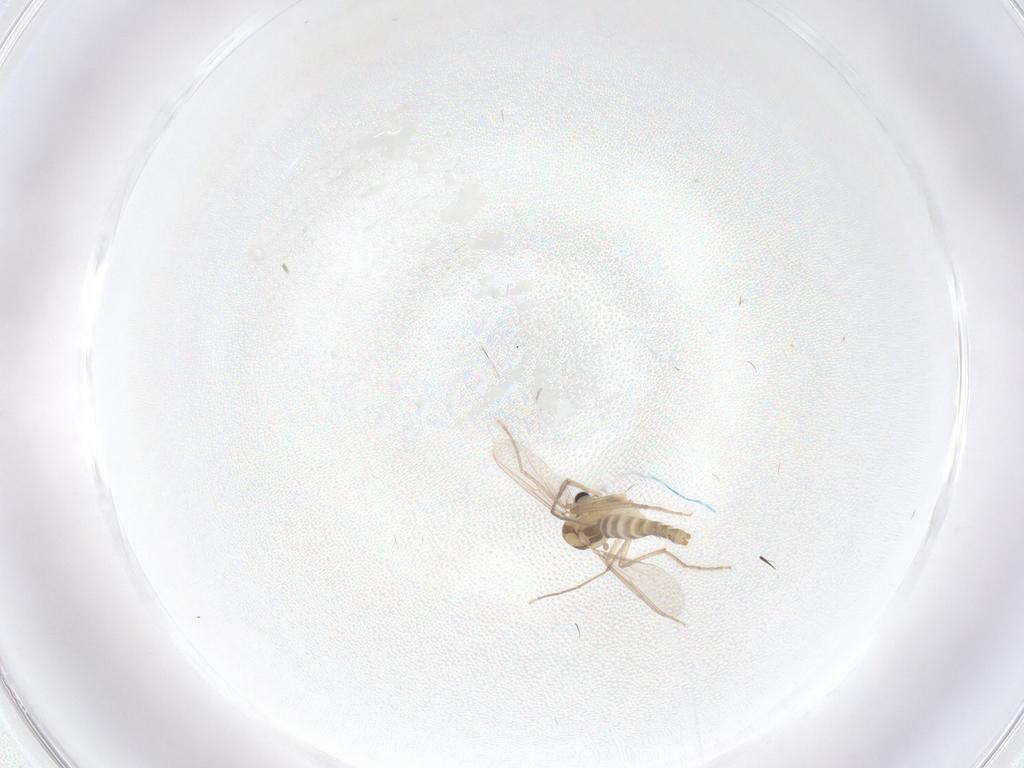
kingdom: Animalia
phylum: Arthropoda
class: Insecta
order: Diptera
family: Chironomidae
